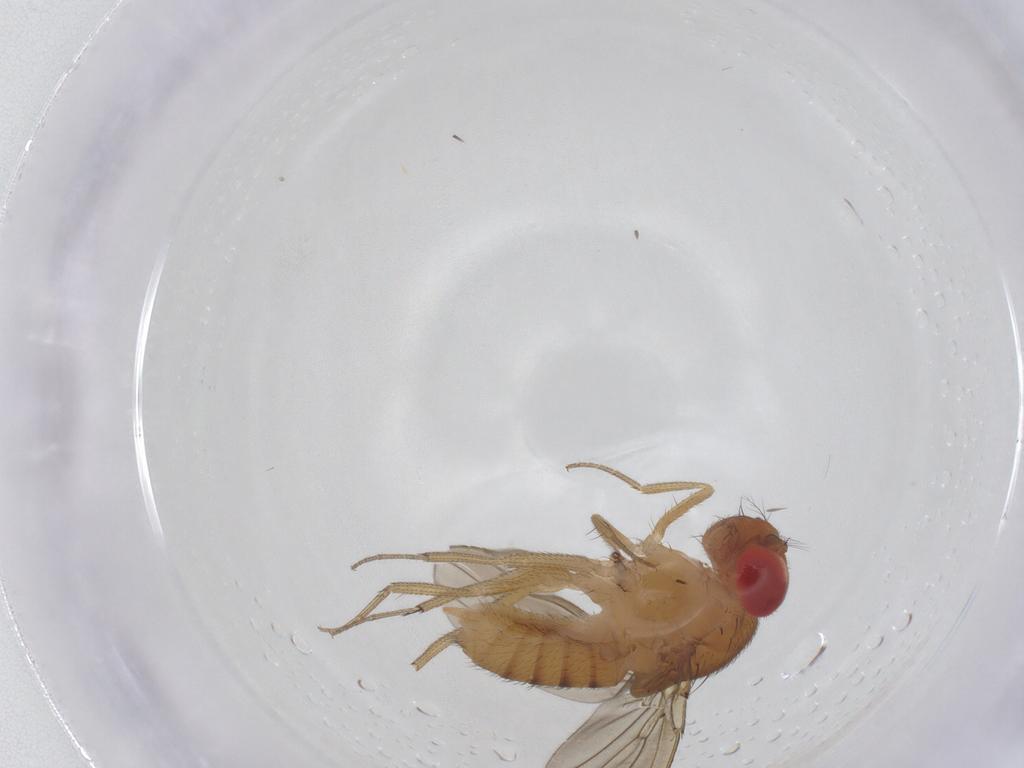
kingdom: Animalia
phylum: Arthropoda
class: Insecta
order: Diptera
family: Drosophilidae
